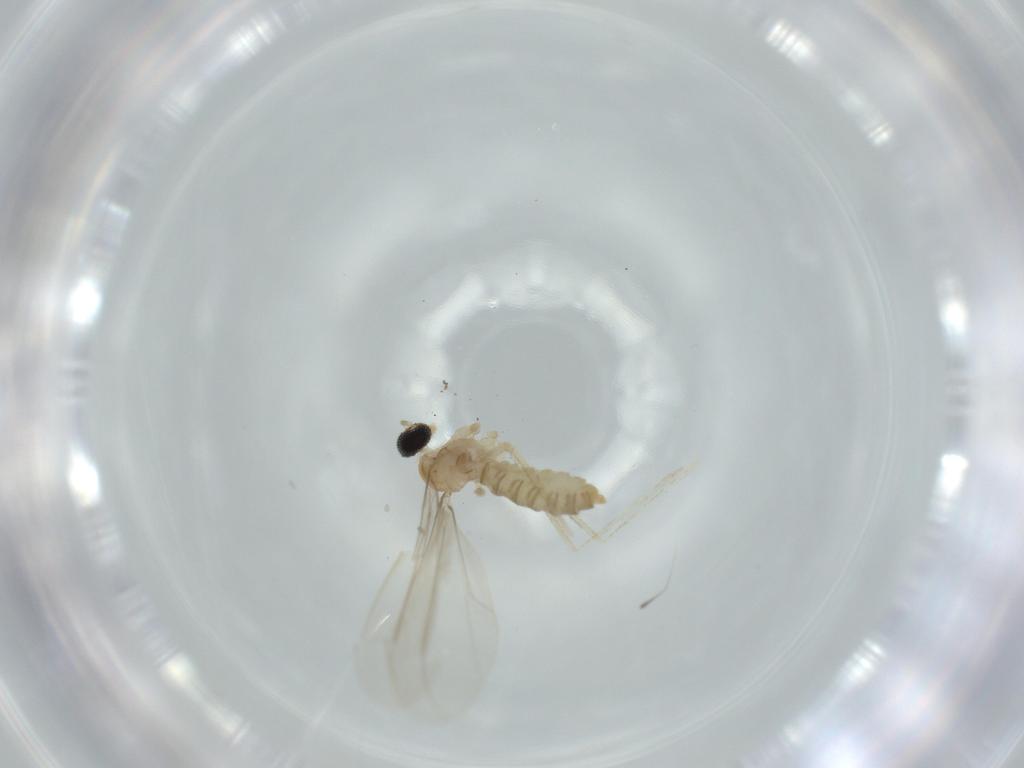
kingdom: Animalia
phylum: Arthropoda
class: Insecta
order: Diptera
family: Cecidomyiidae
